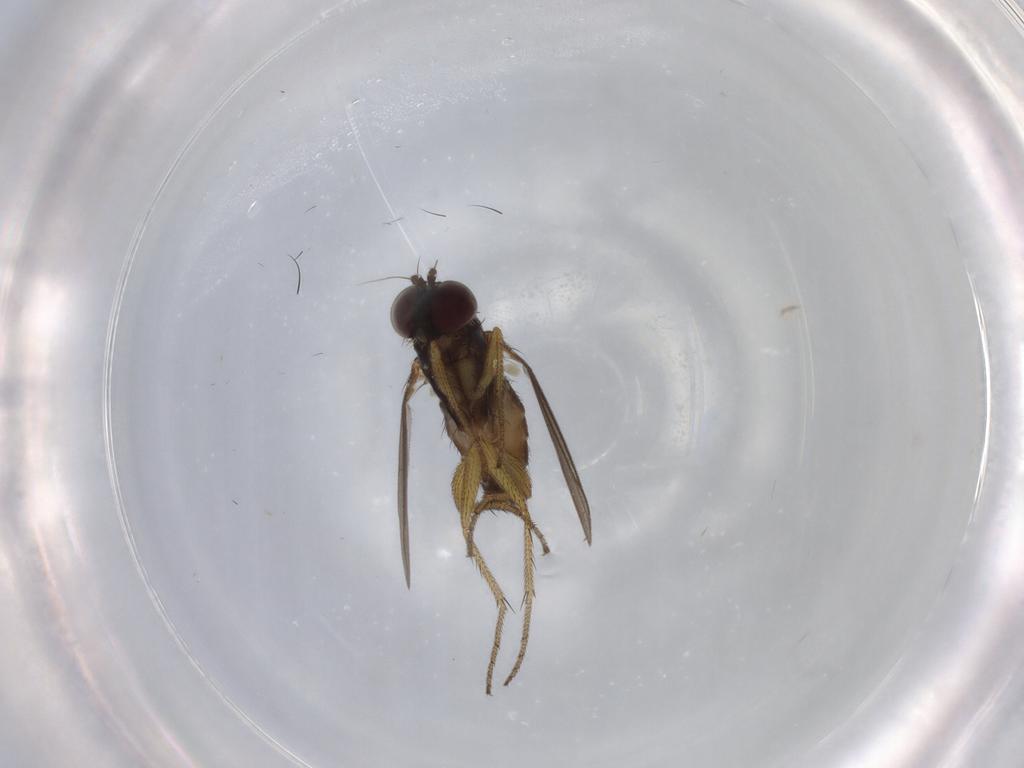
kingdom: Animalia
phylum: Arthropoda
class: Insecta
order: Diptera
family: Dolichopodidae
